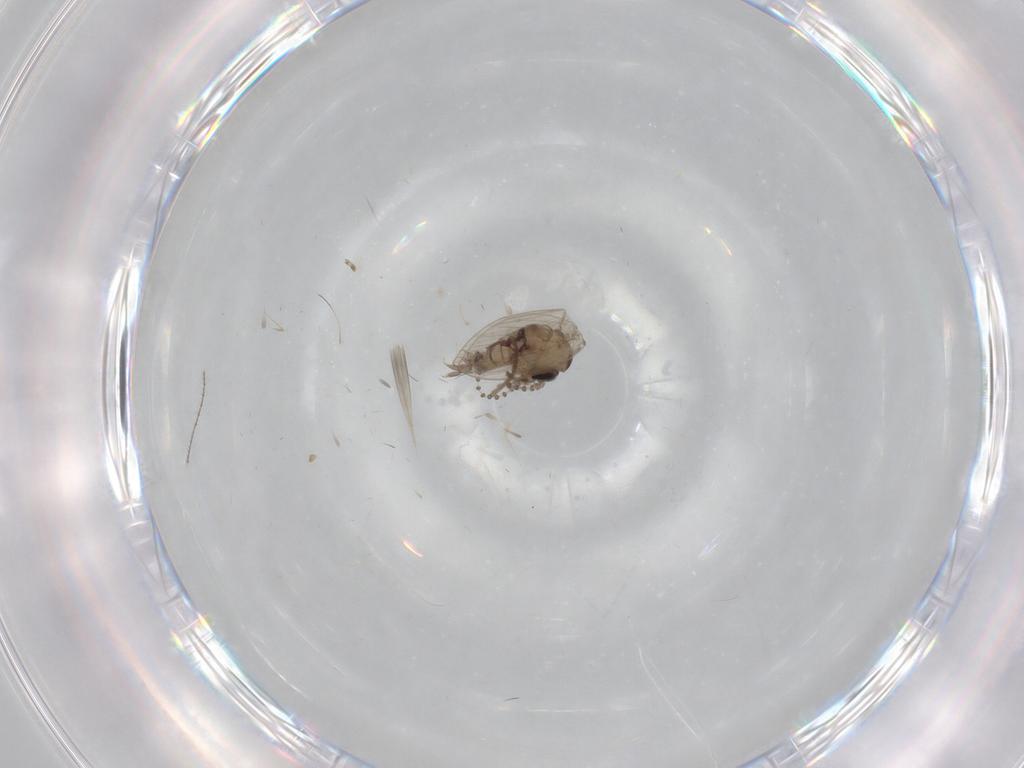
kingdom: Animalia
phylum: Arthropoda
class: Insecta
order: Diptera
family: Psychodidae
